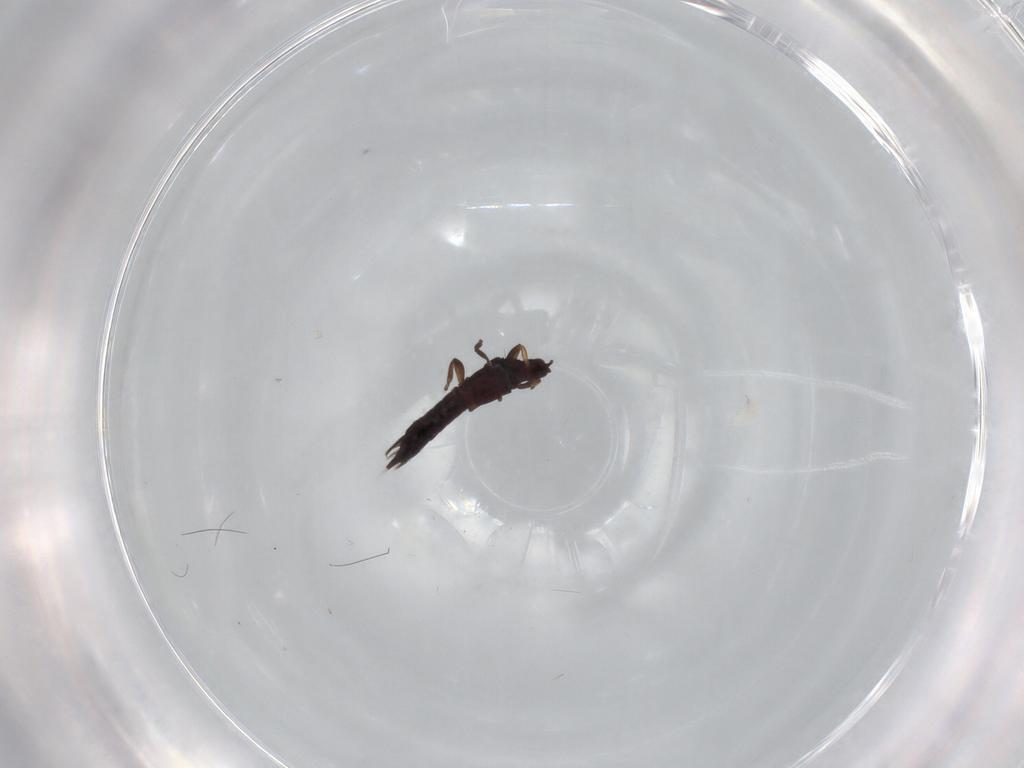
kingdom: Animalia
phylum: Arthropoda
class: Insecta
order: Thysanoptera
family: Phlaeothripidae
